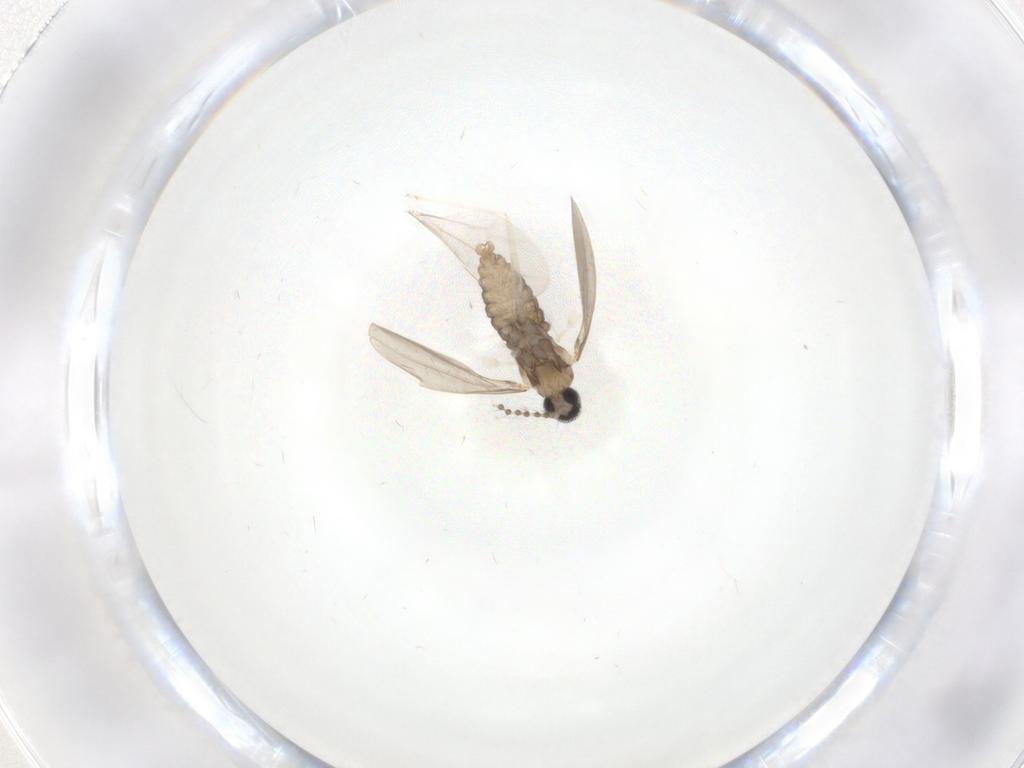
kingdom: Animalia
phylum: Arthropoda
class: Insecta
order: Diptera
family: Cecidomyiidae
